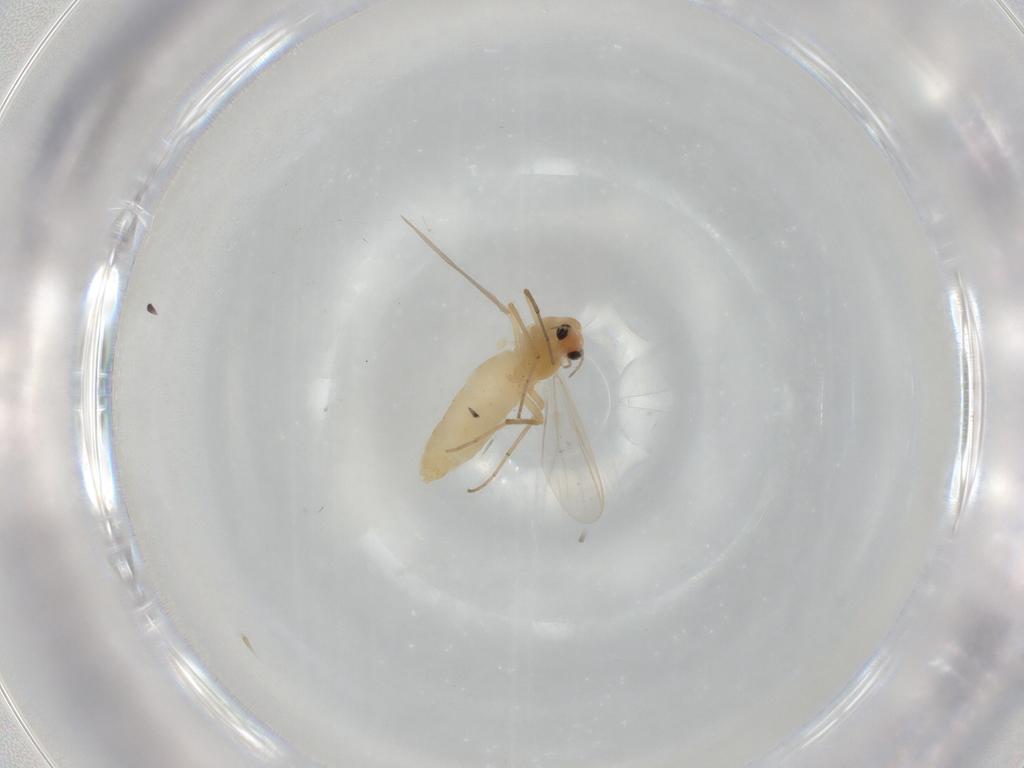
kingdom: Animalia
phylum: Arthropoda
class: Insecta
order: Diptera
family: Chironomidae
